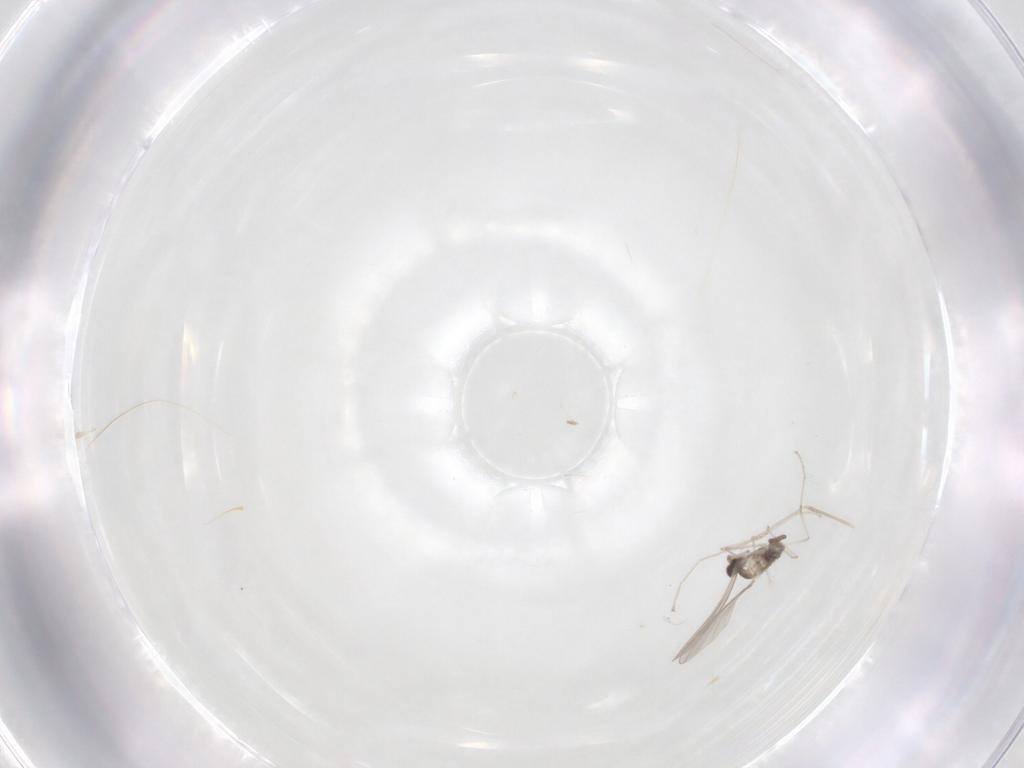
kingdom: Animalia
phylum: Arthropoda
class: Insecta
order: Diptera
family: Cecidomyiidae
